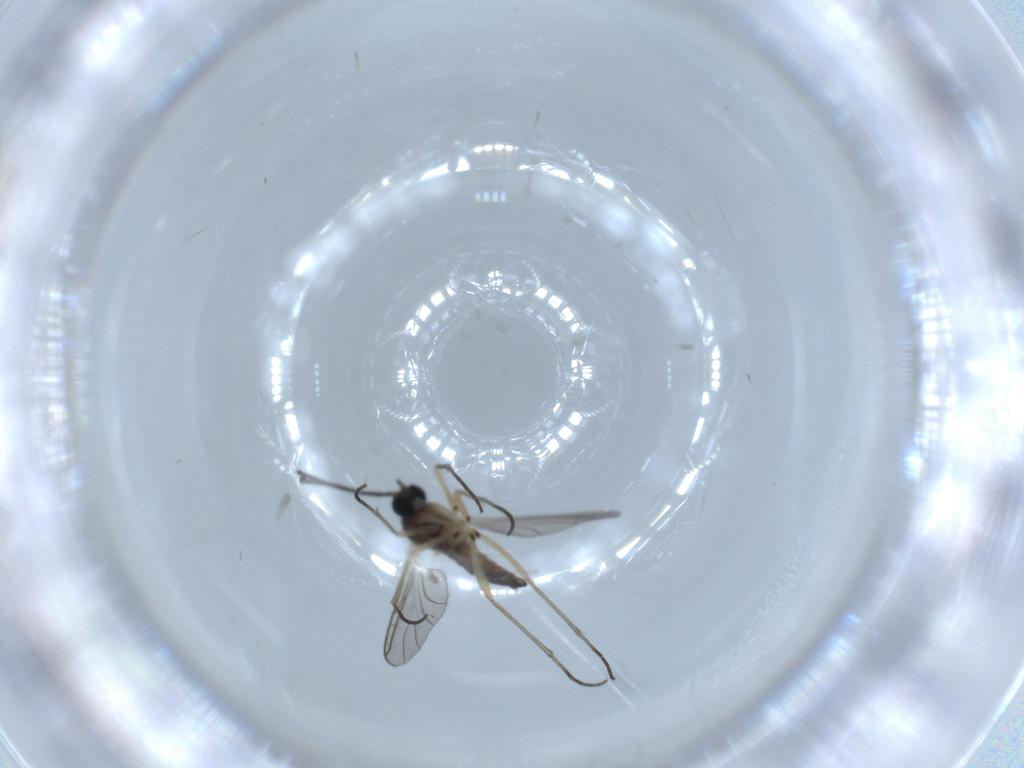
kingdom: Animalia
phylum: Arthropoda
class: Insecta
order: Diptera
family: Sciaridae
